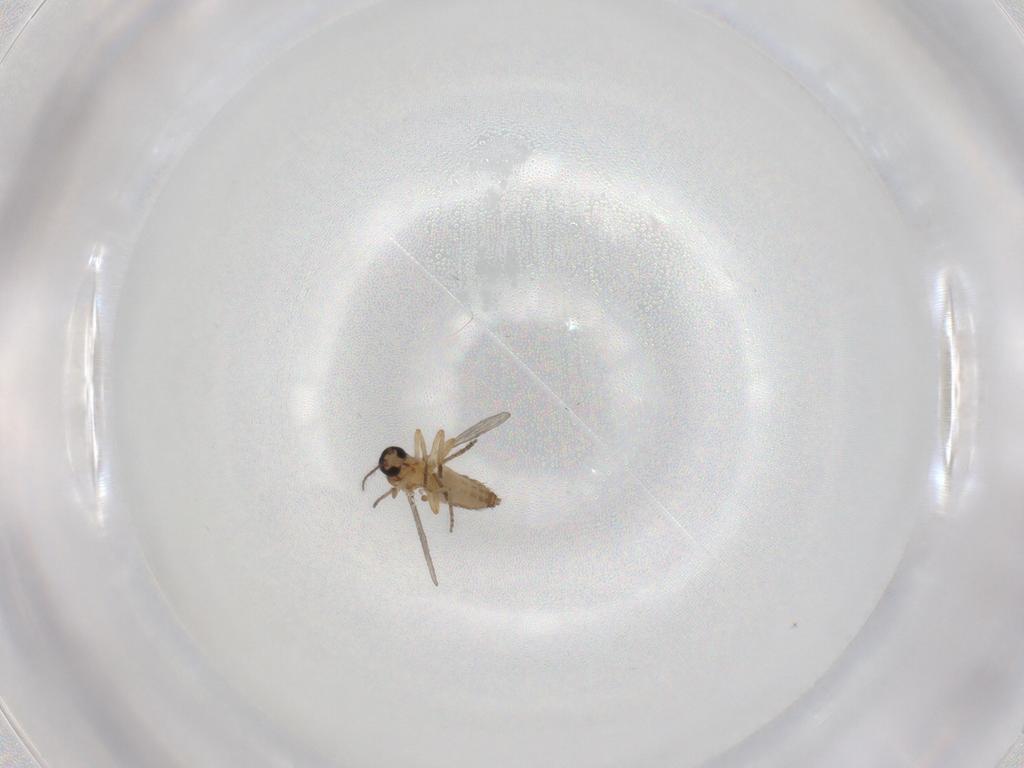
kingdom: Animalia
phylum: Arthropoda
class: Insecta
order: Diptera
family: Ceratopogonidae
